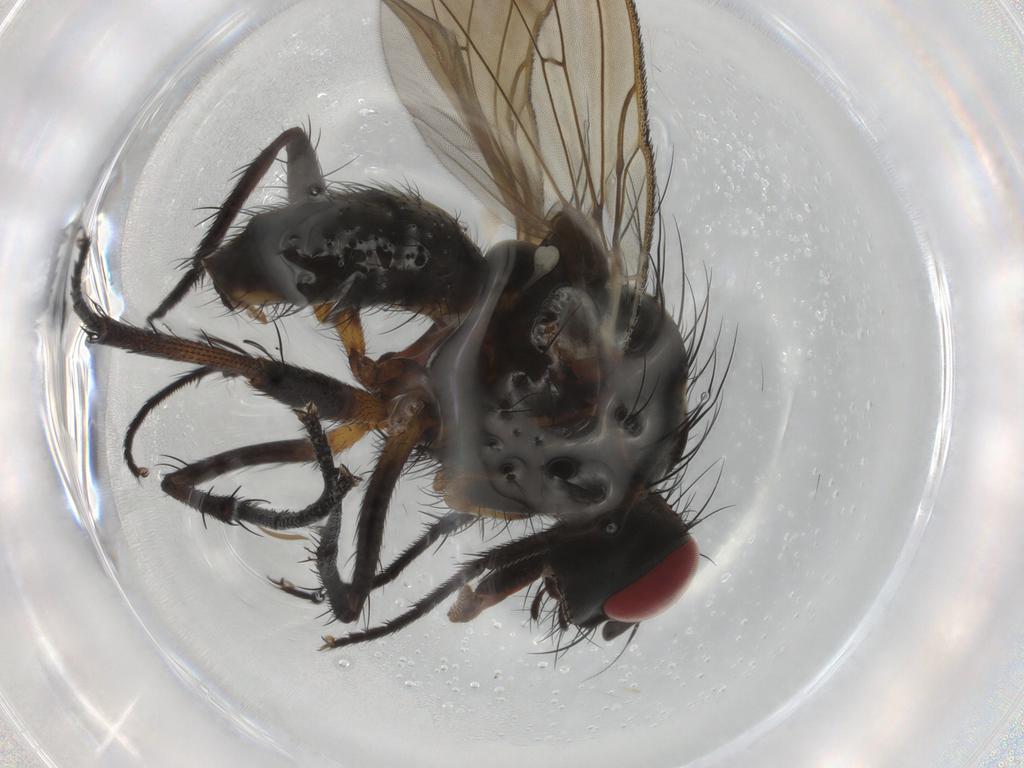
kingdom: Animalia
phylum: Arthropoda
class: Insecta
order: Diptera
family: Anthomyiidae
